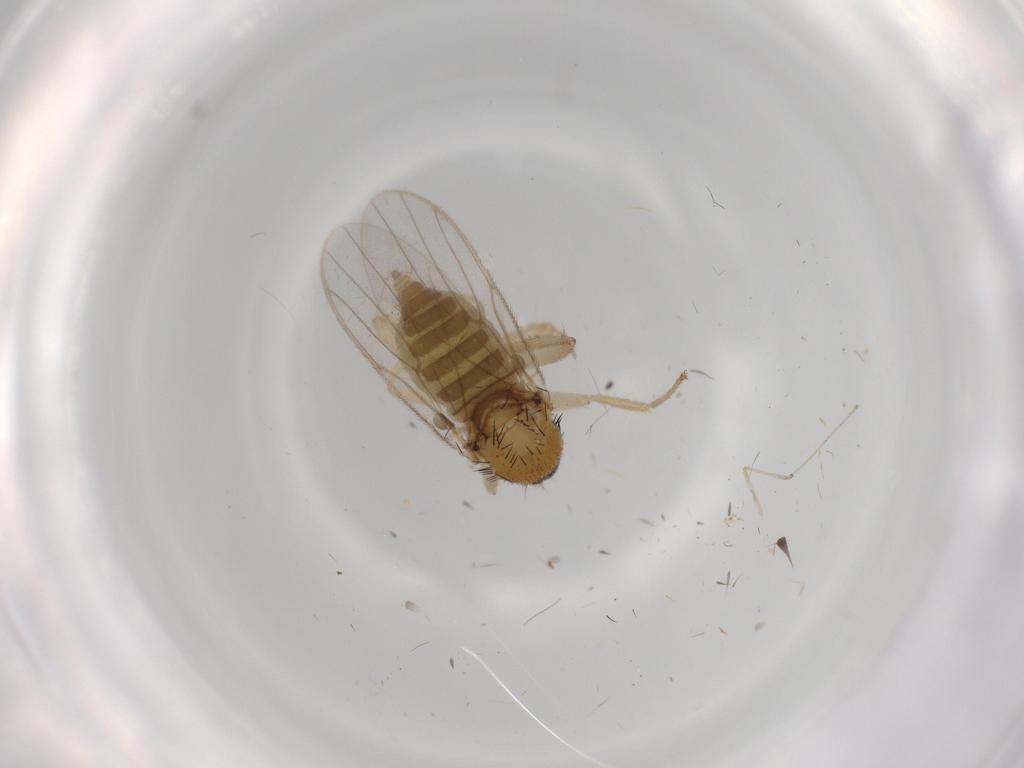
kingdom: Animalia
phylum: Arthropoda
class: Insecta
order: Diptera
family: Hybotidae
